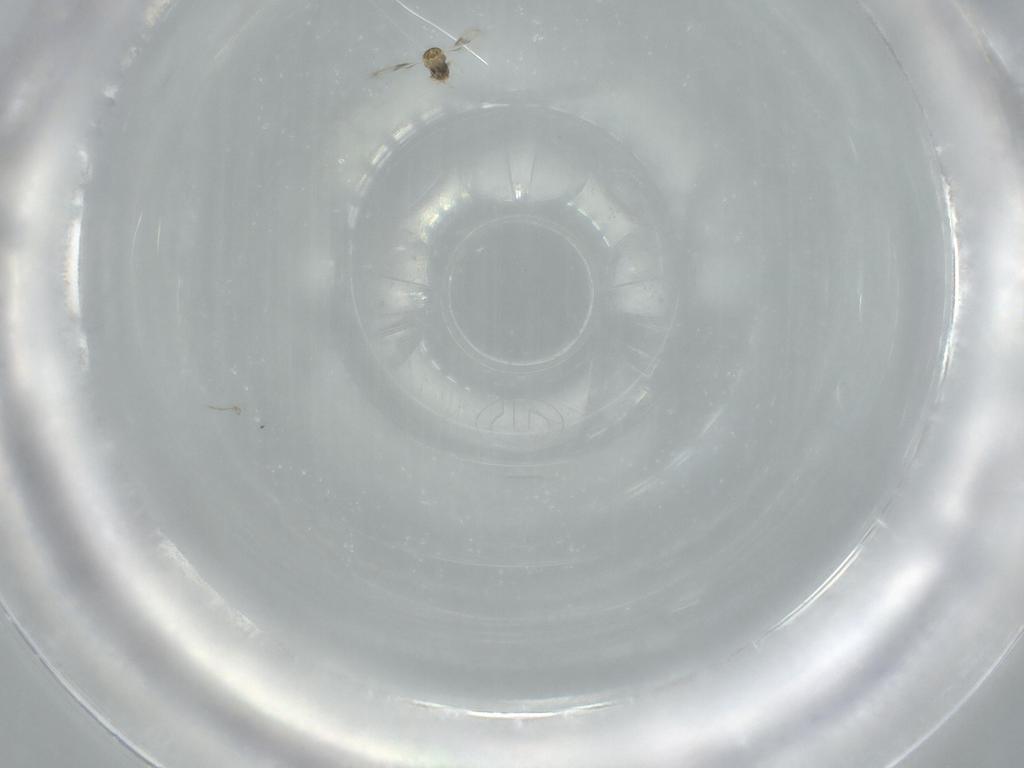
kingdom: Animalia
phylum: Arthropoda
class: Insecta
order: Hymenoptera
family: Aphelinidae
